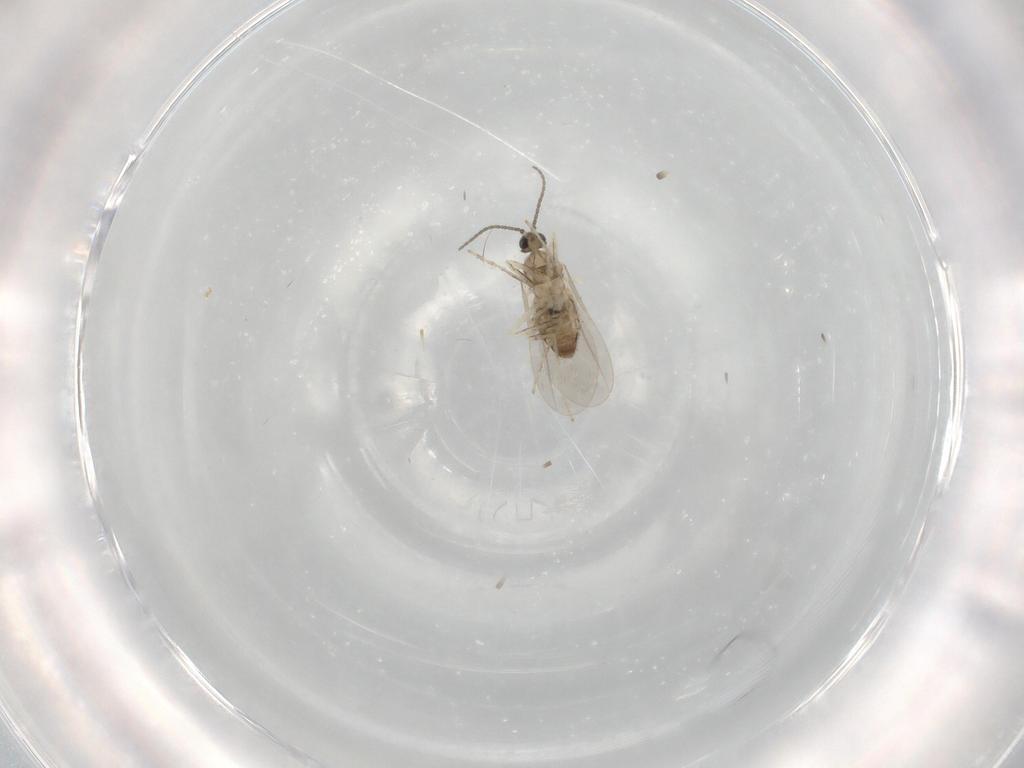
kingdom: Animalia
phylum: Arthropoda
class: Insecta
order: Diptera
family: Cecidomyiidae
